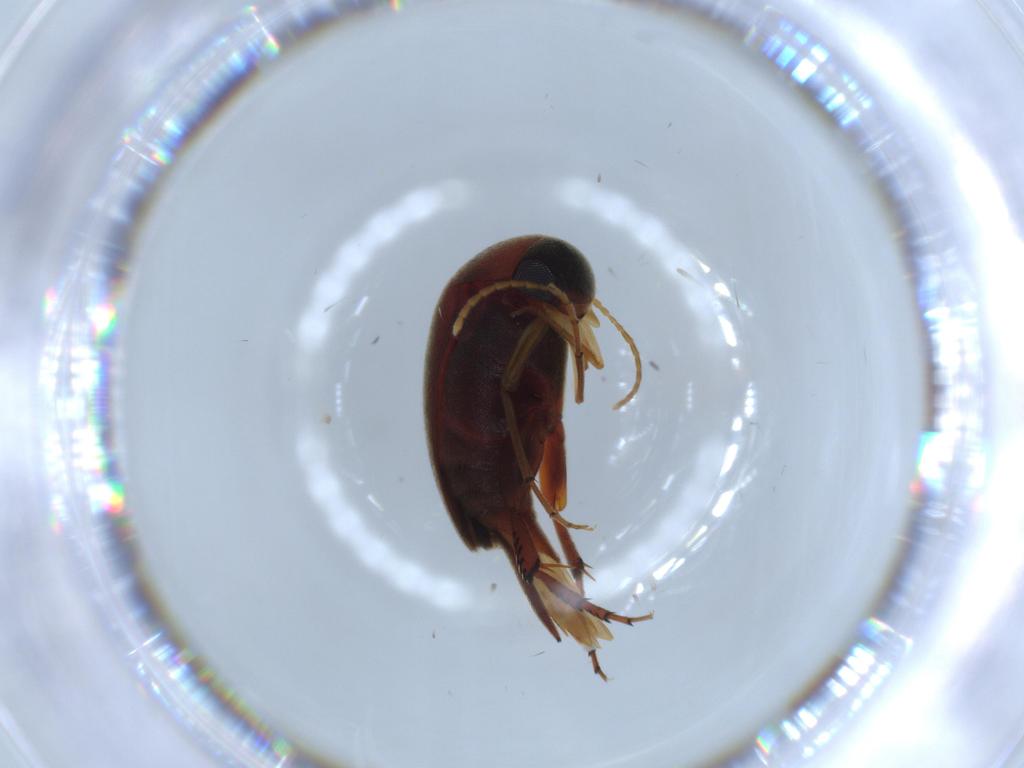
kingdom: Animalia
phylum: Arthropoda
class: Insecta
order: Coleoptera
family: Mordellidae
